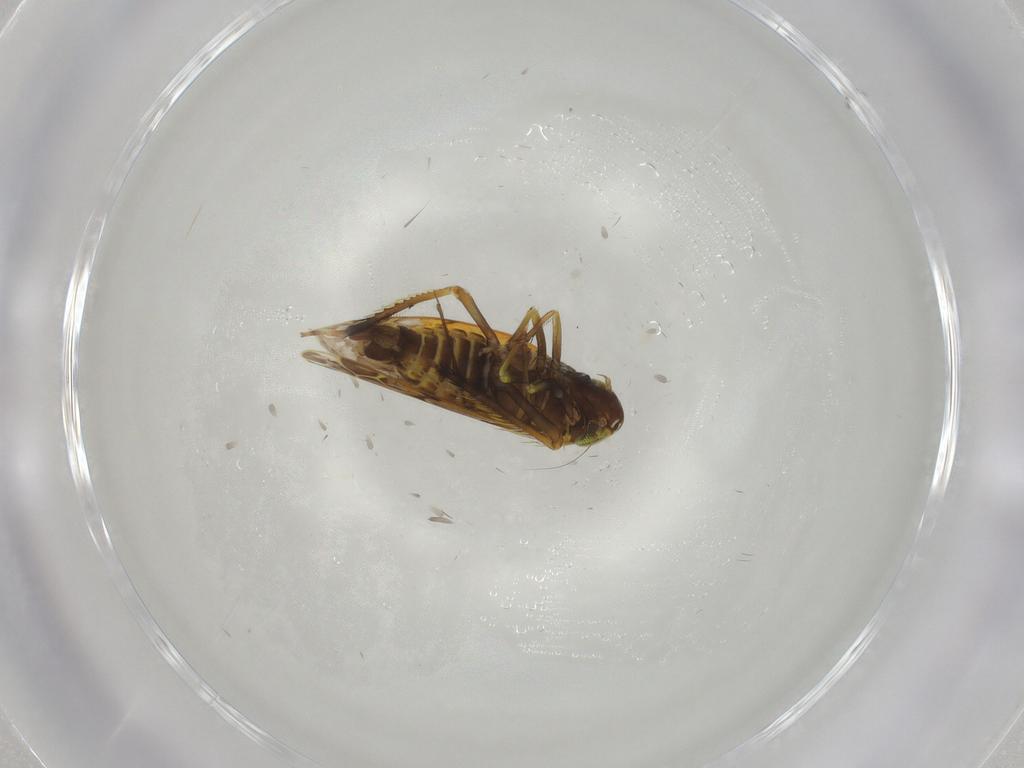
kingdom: Animalia
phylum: Arthropoda
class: Insecta
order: Hemiptera
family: Cicadellidae
